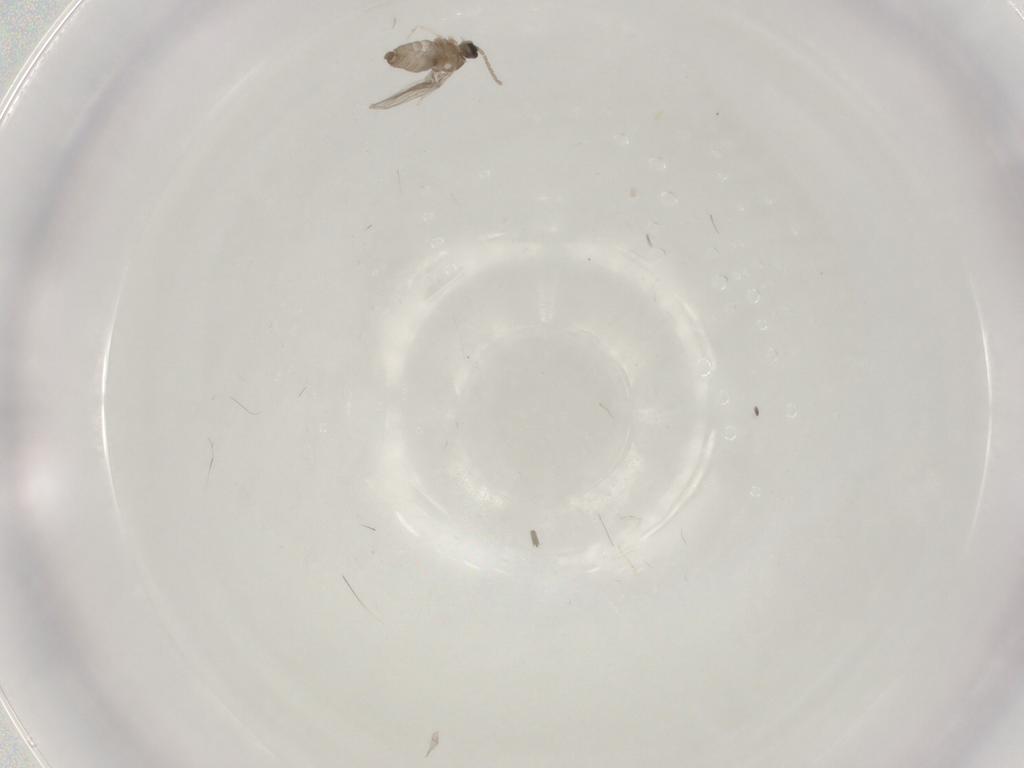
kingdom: Animalia
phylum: Arthropoda
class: Insecta
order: Diptera
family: Cecidomyiidae
